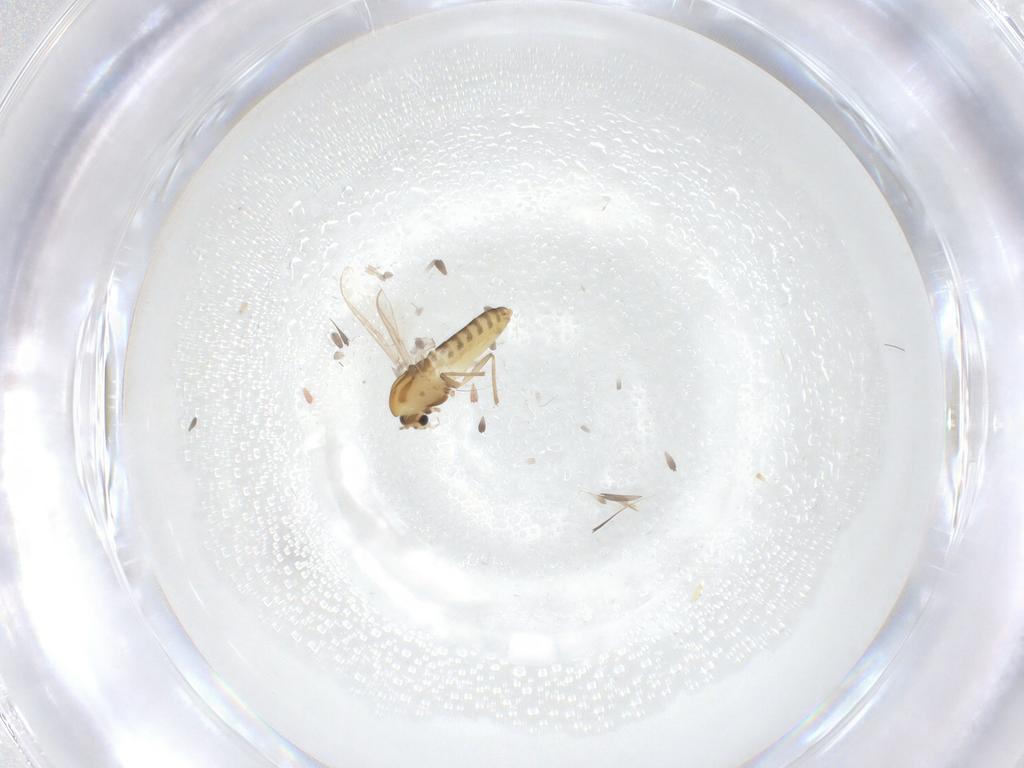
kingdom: Animalia
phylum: Arthropoda
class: Insecta
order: Diptera
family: Chironomidae
